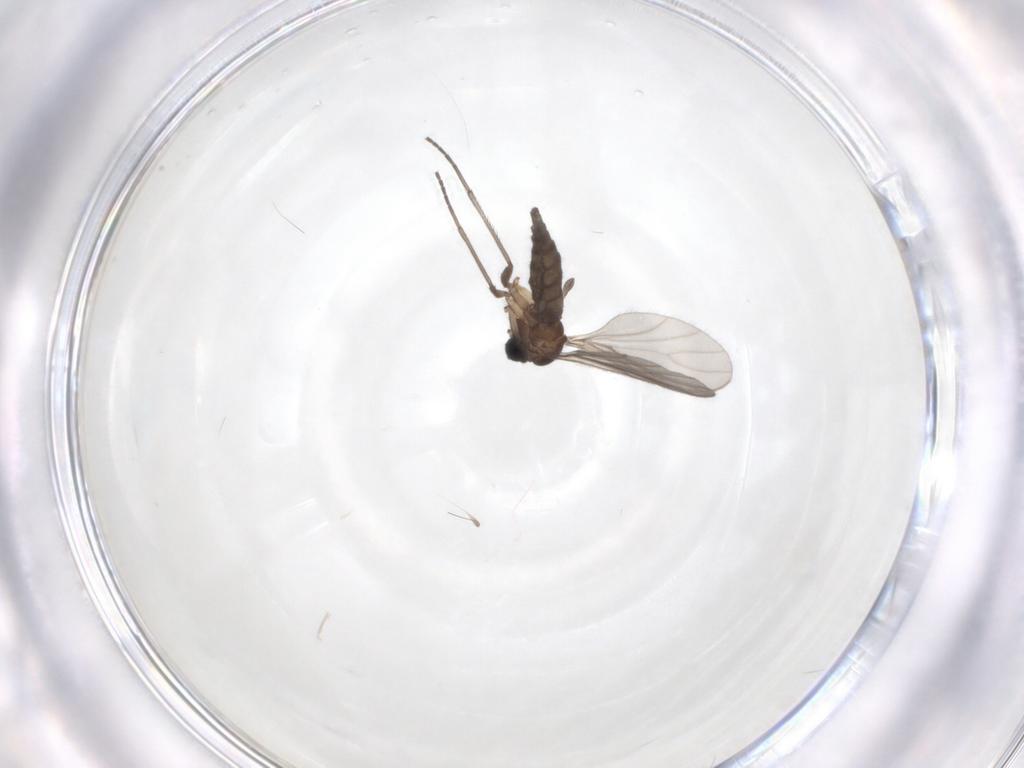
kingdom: Animalia
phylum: Arthropoda
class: Insecta
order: Diptera
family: Sciaridae
